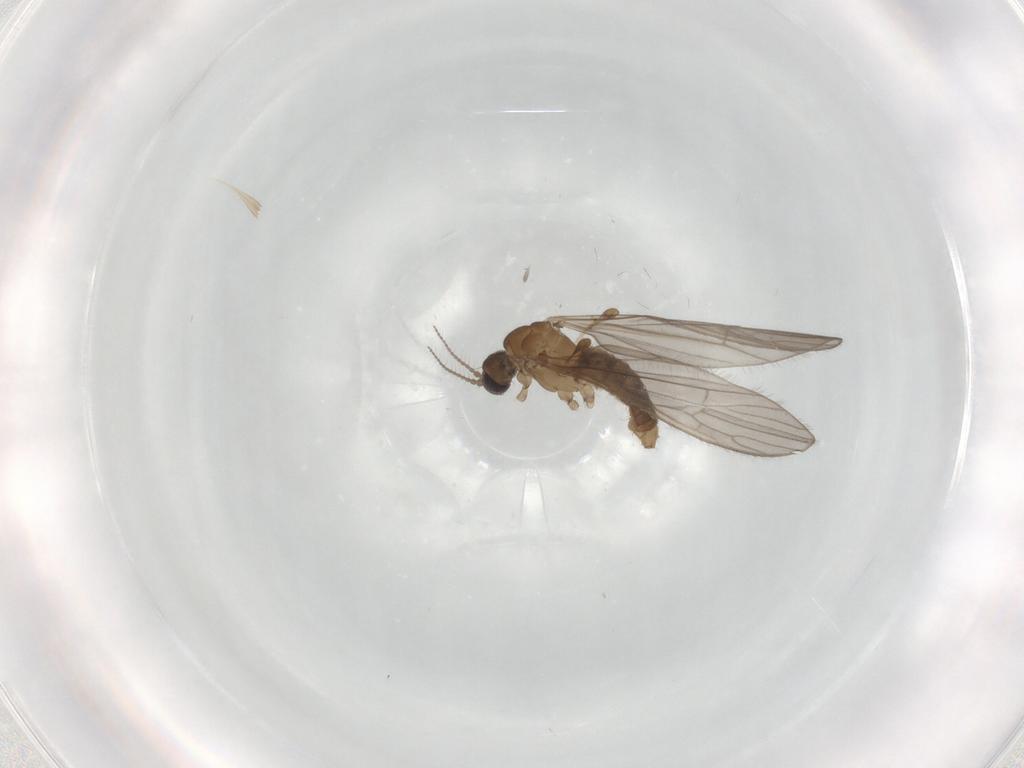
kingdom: Animalia
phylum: Arthropoda
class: Insecta
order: Diptera
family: Limoniidae
